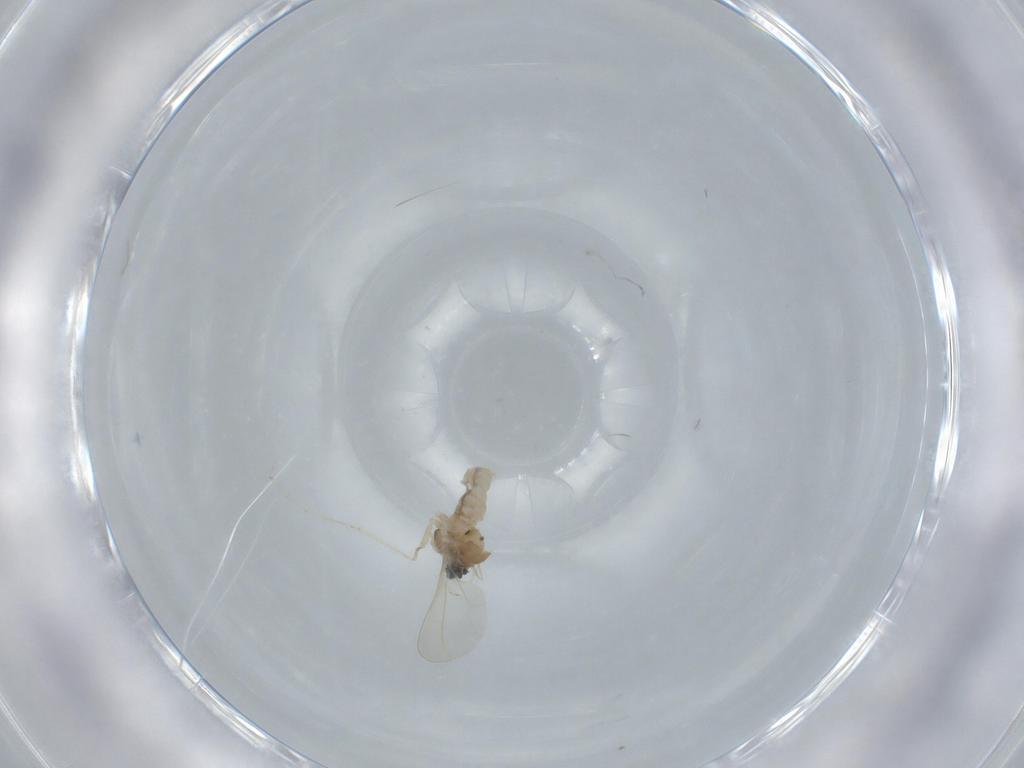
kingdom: Animalia
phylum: Arthropoda
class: Insecta
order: Diptera
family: Cecidomyiidae
